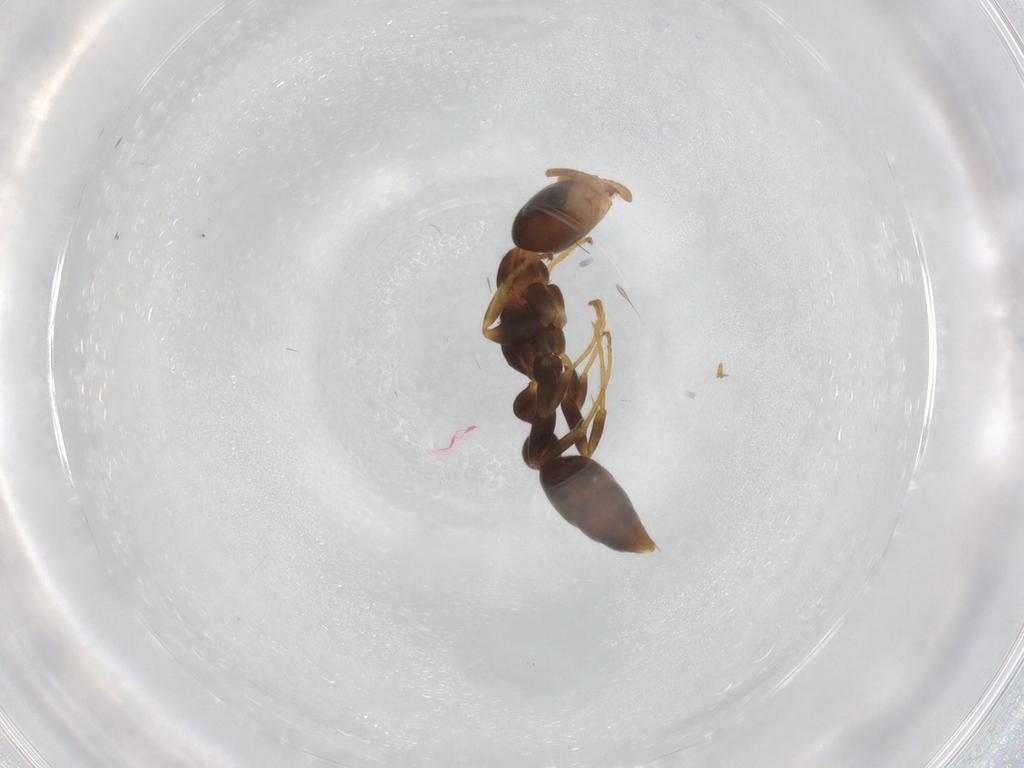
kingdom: Animalia
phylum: Arthropoda
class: Insecta
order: Hymenoptera
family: Formicidae
